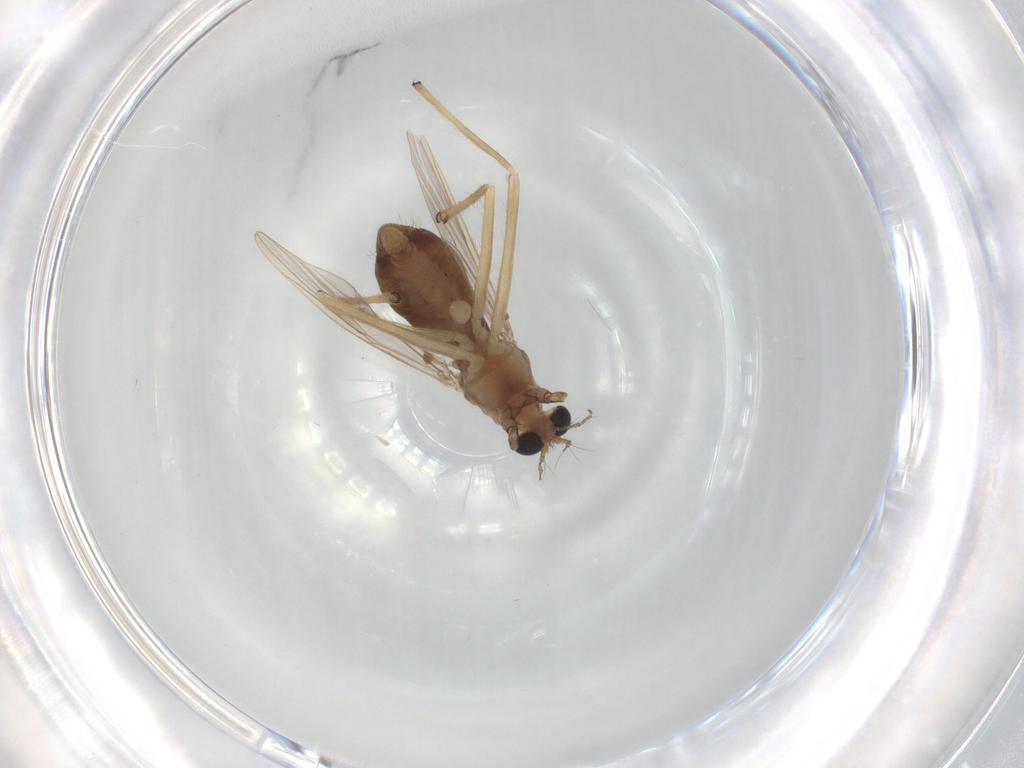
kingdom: Animalia
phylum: Arthropoda
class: Insecta
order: Diptera
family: Chironomidae
